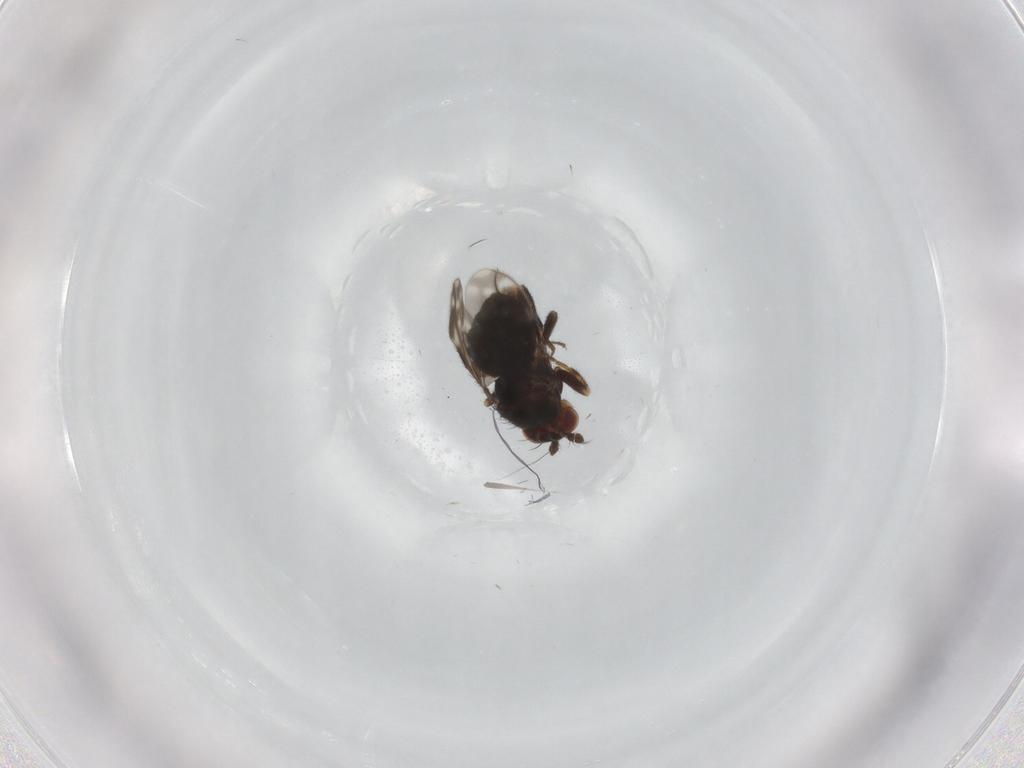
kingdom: Animalia
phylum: Arthropoda
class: Insecta
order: Diptera
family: Sphaeroceridae
